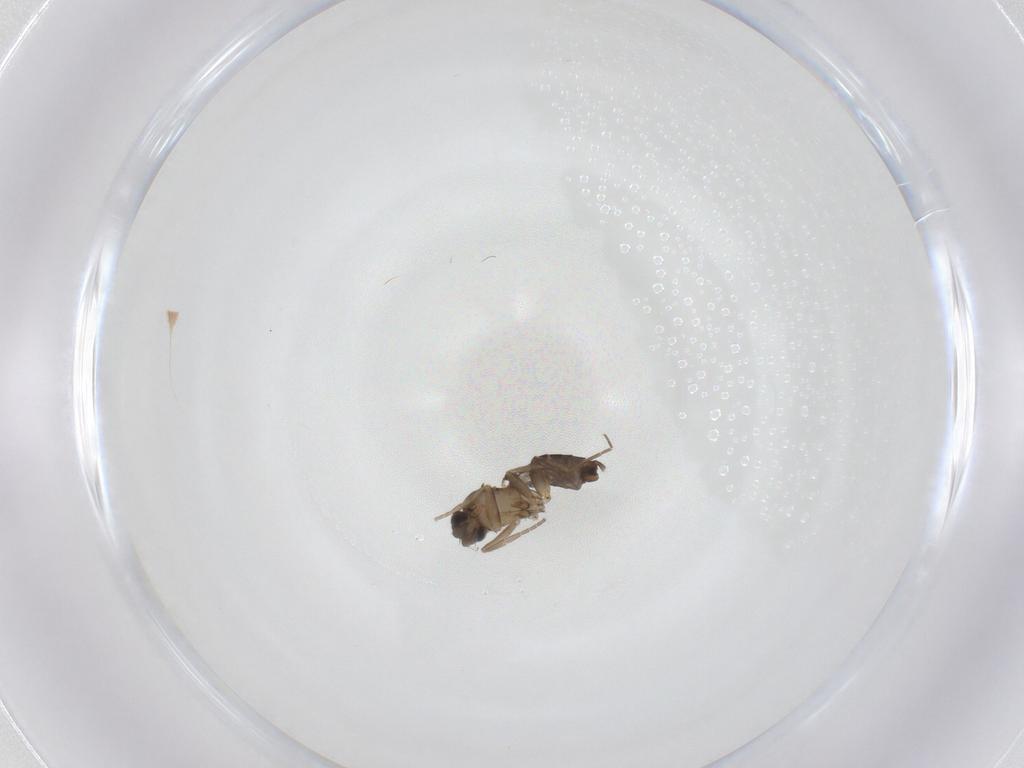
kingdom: Animalia
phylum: Arthropoda
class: Insecta
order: Diptera
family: Phoridae
